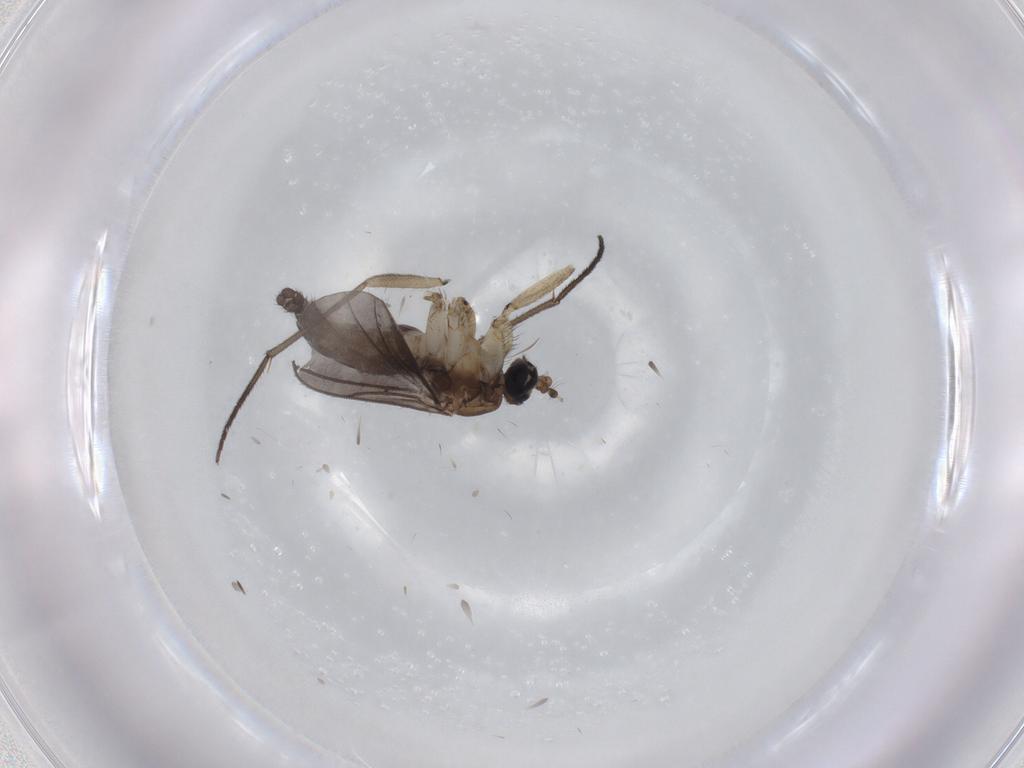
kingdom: Animalia
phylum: Arthropoda
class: Insecta
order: Diptera
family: Sciaridae
